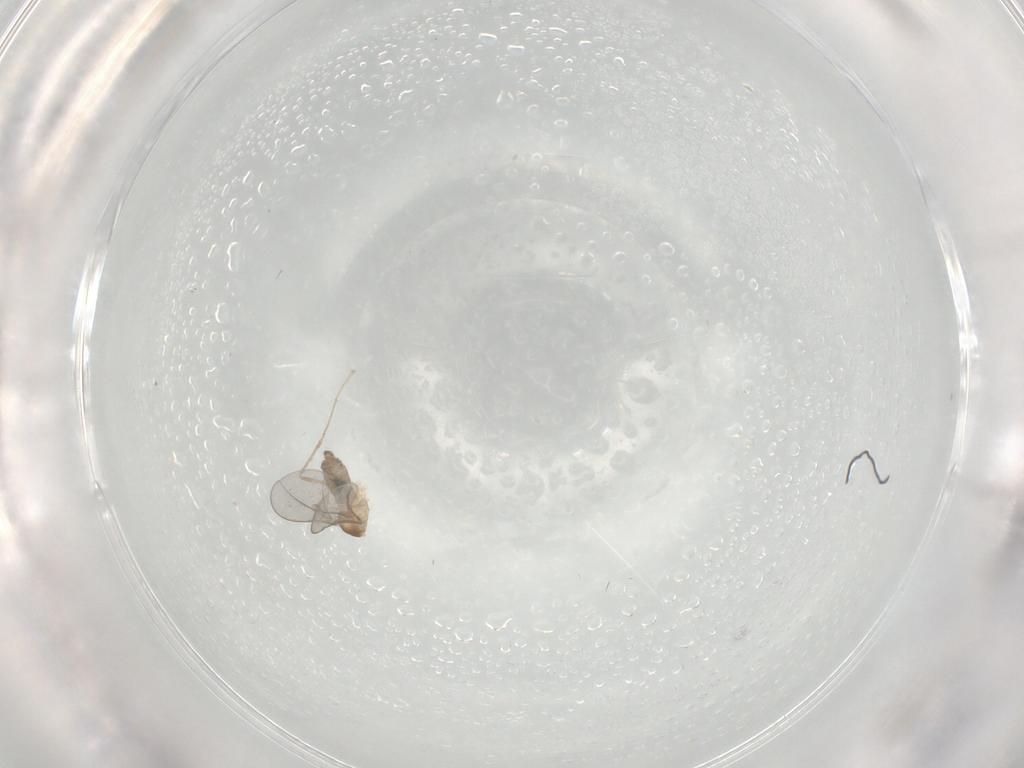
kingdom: Animalia
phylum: Arthropoda
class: Insecta
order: Diptera
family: Cecidomyiidae
